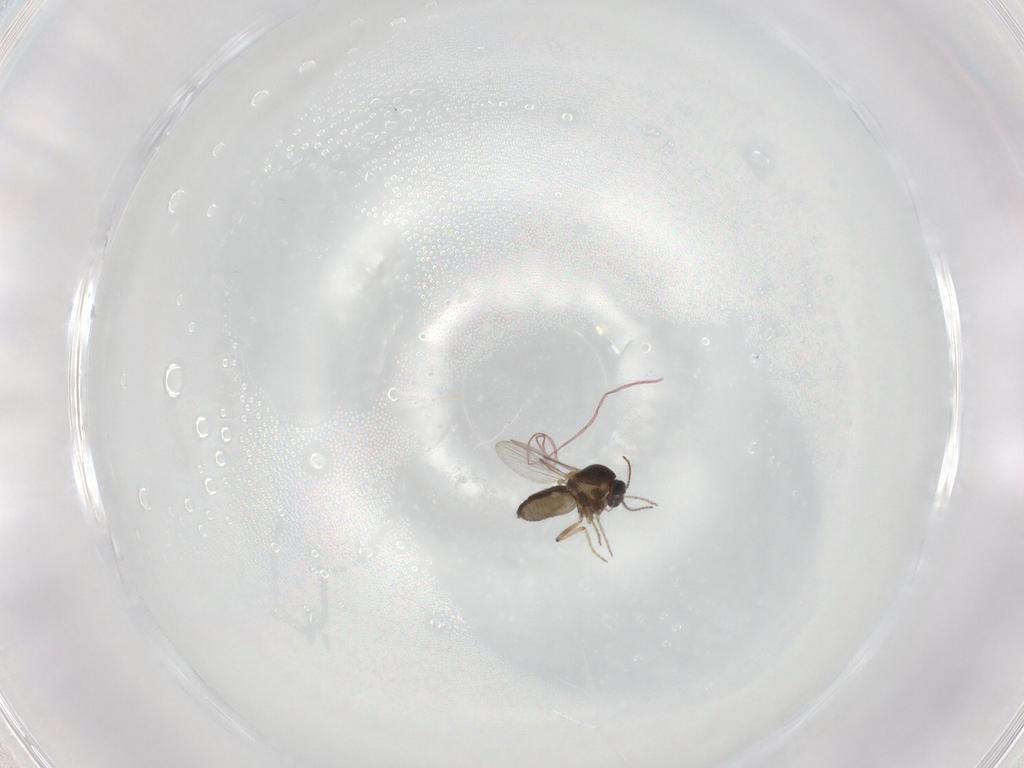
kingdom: Animalia
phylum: Arthropoda
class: Insecta
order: Diptera
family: Ceratopogonidae
